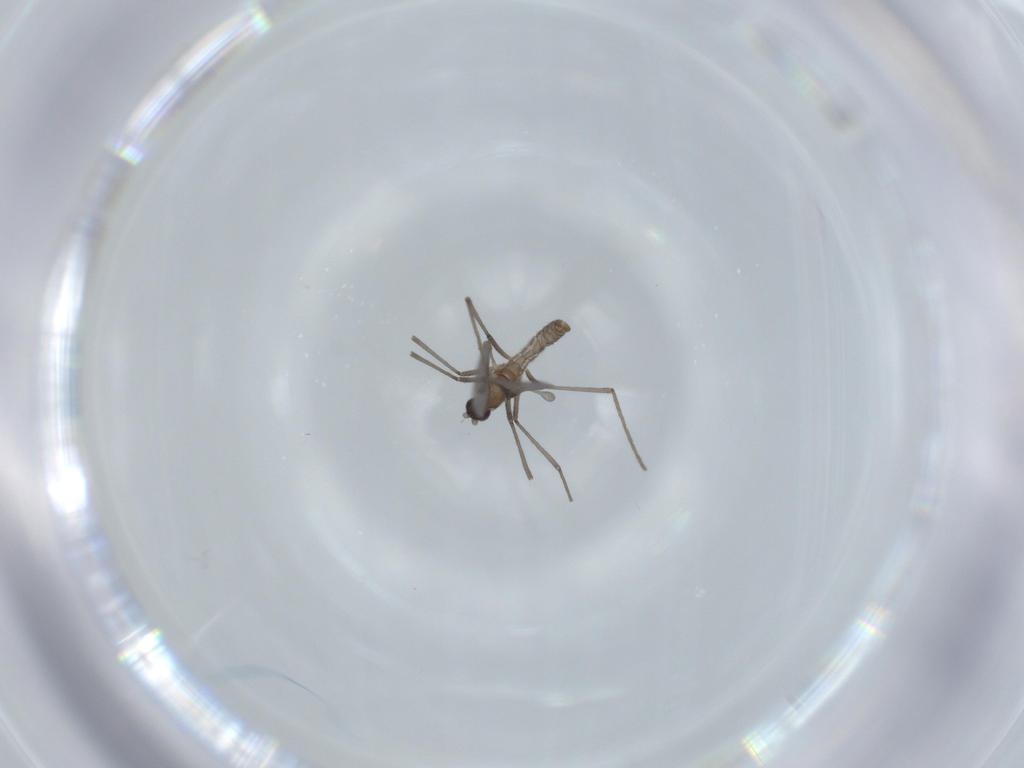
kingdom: Animalia
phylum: Arthropoda
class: Insecta
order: Diptera
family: Cecidomyiidae
